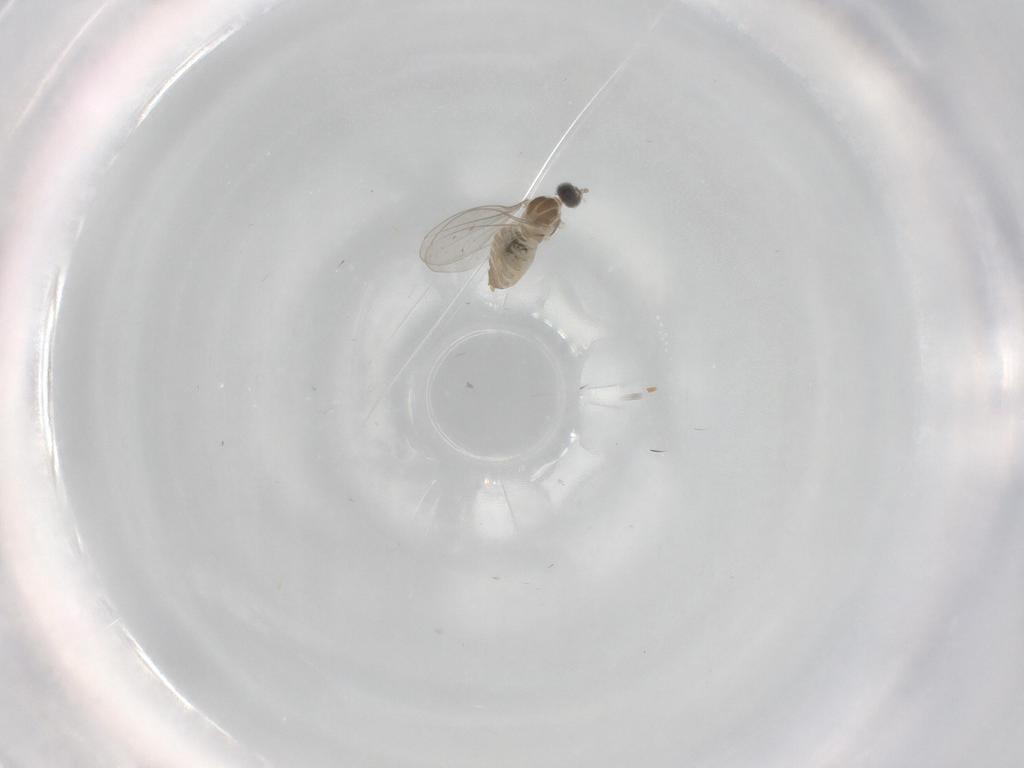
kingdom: Animalia
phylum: Arthropoda
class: Insecta
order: Diptera
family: Cecidomyiidae
